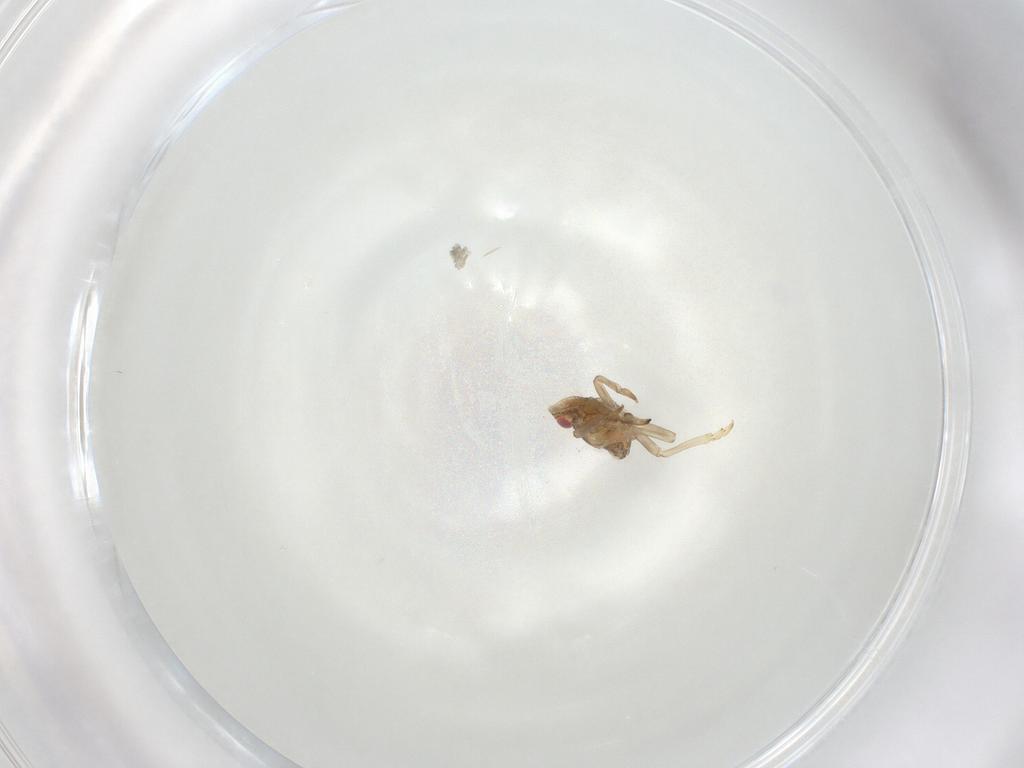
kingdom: Animalia
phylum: Arthropoda
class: Insecta
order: Hemiptera
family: Tropiduchidae
